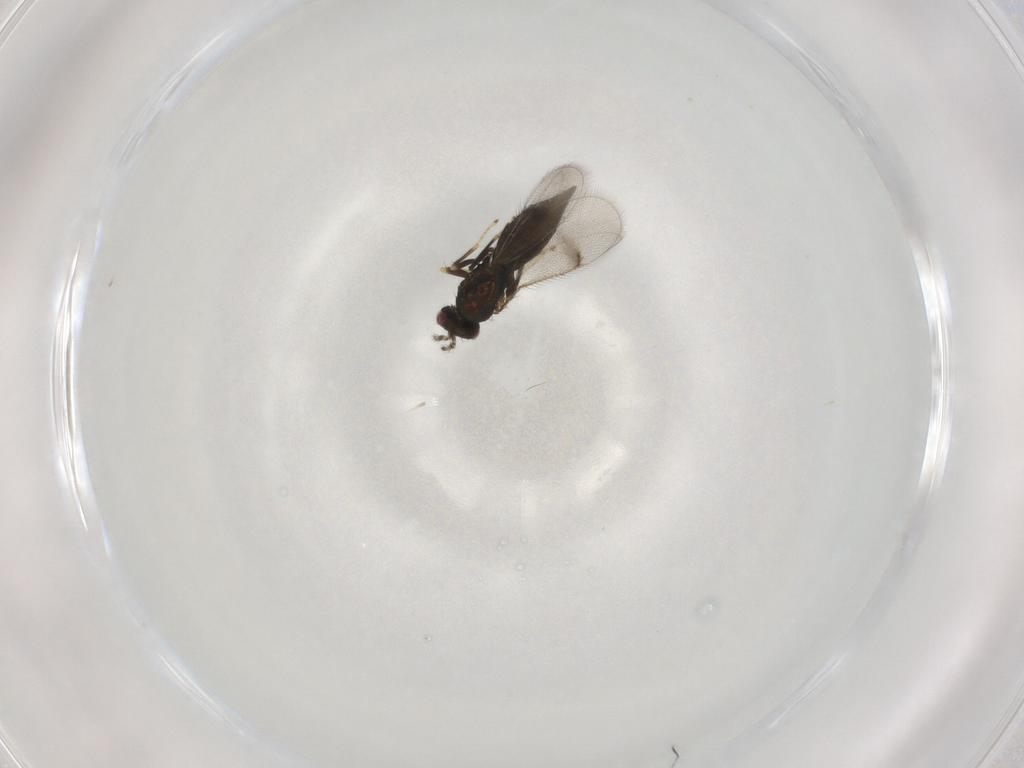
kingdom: Animalia
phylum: Arthropoda
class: Insecta
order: Hymenoptera
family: Eulophidae
